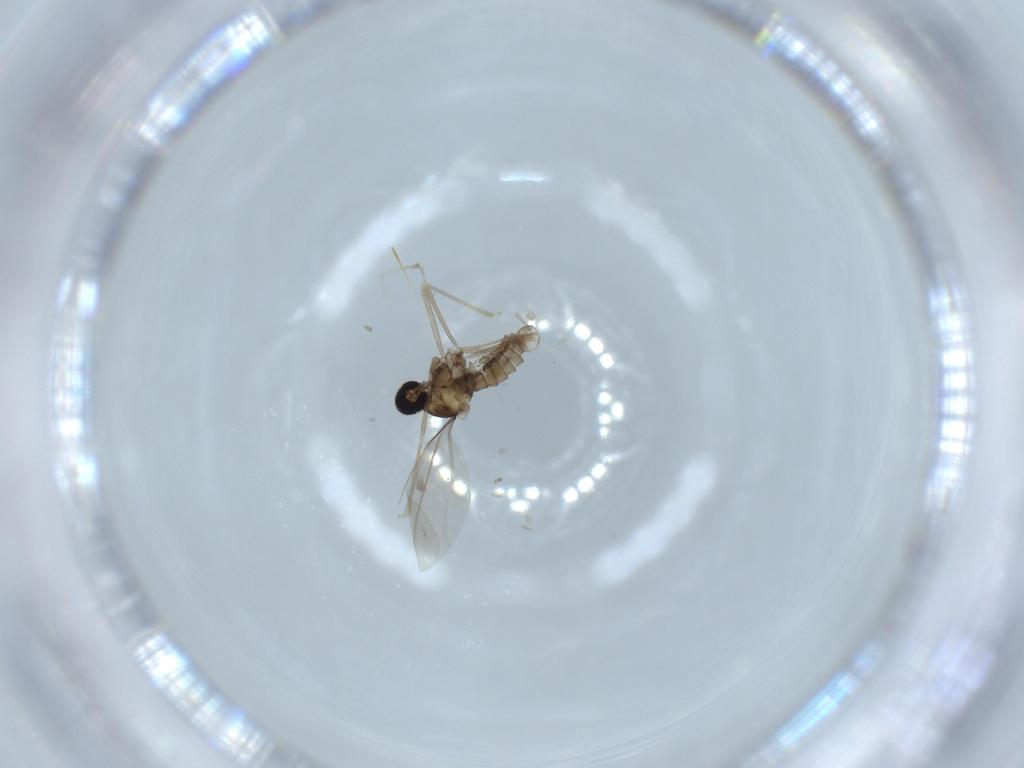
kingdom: Animalia
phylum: Arthropoda
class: Insecta
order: Diptera
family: Cecidomyiidae
